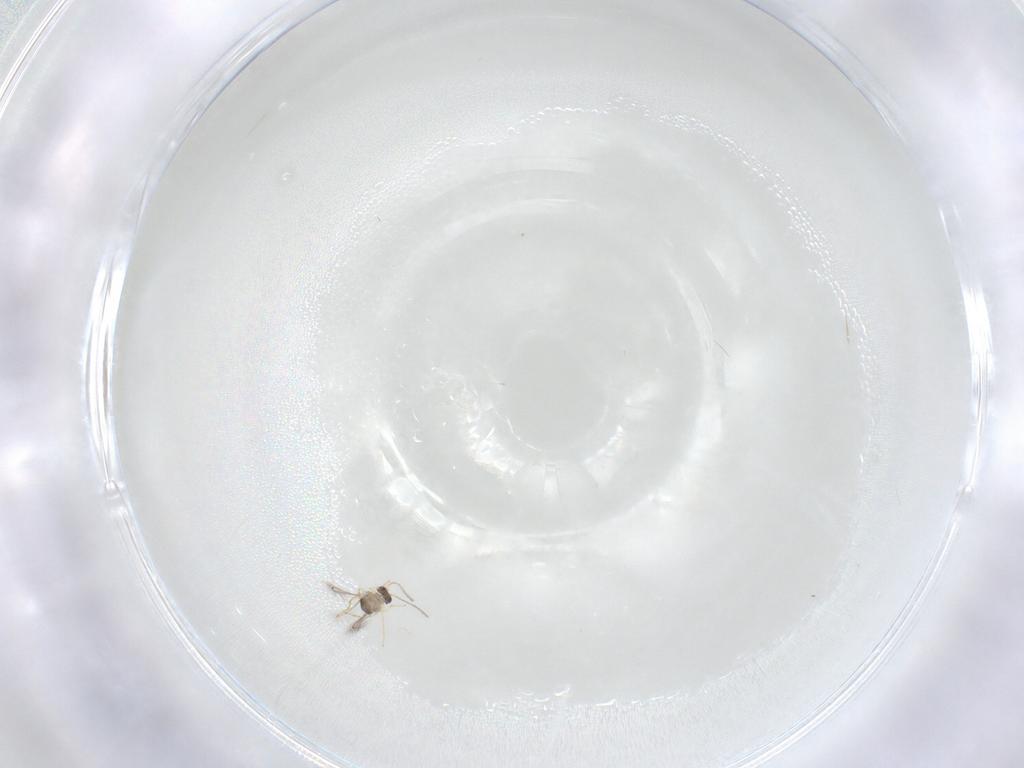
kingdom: Animalia
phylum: Arthropoda
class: Insecta
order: Hymenoptera
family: Mymaridae
